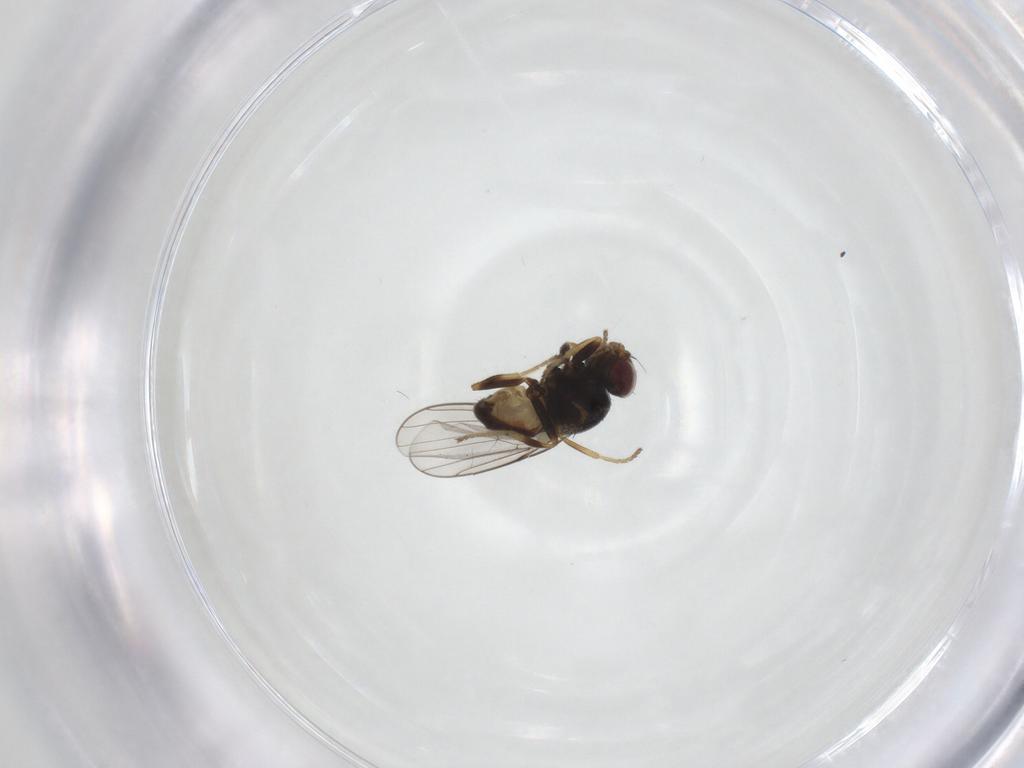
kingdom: Animalia
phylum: Arthropoda
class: Insecta
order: Diptera
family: Chloropidae
